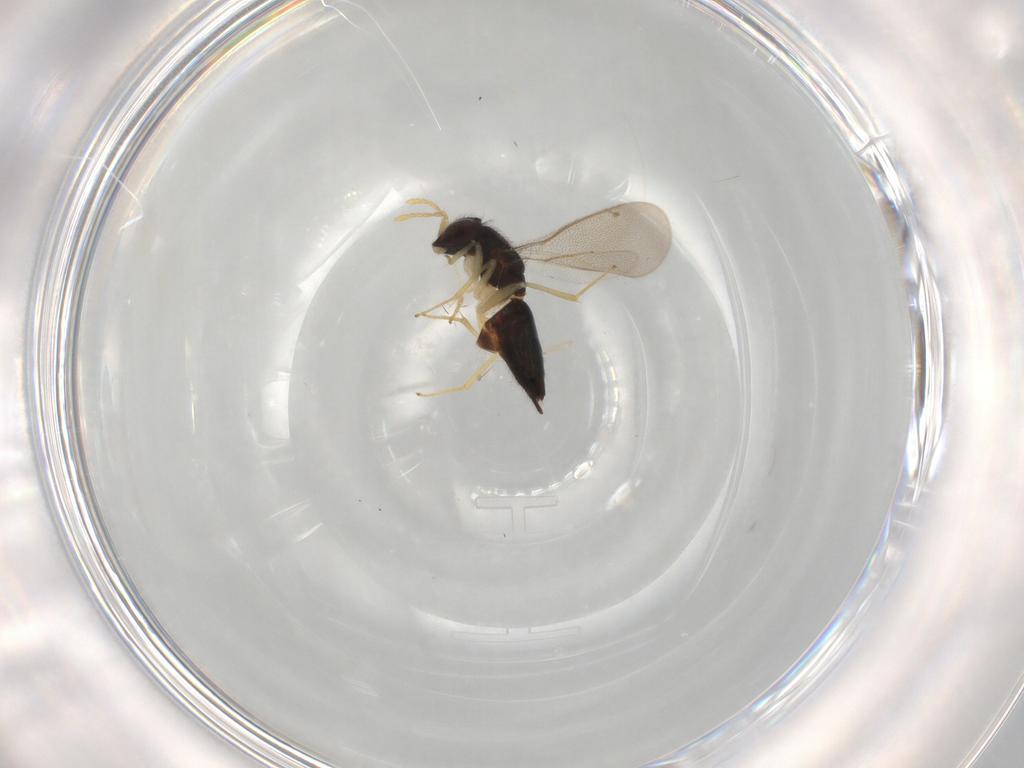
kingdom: Animalia
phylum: Arthropoda
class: Insecta
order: Hymenoptera
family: Eulophidae
